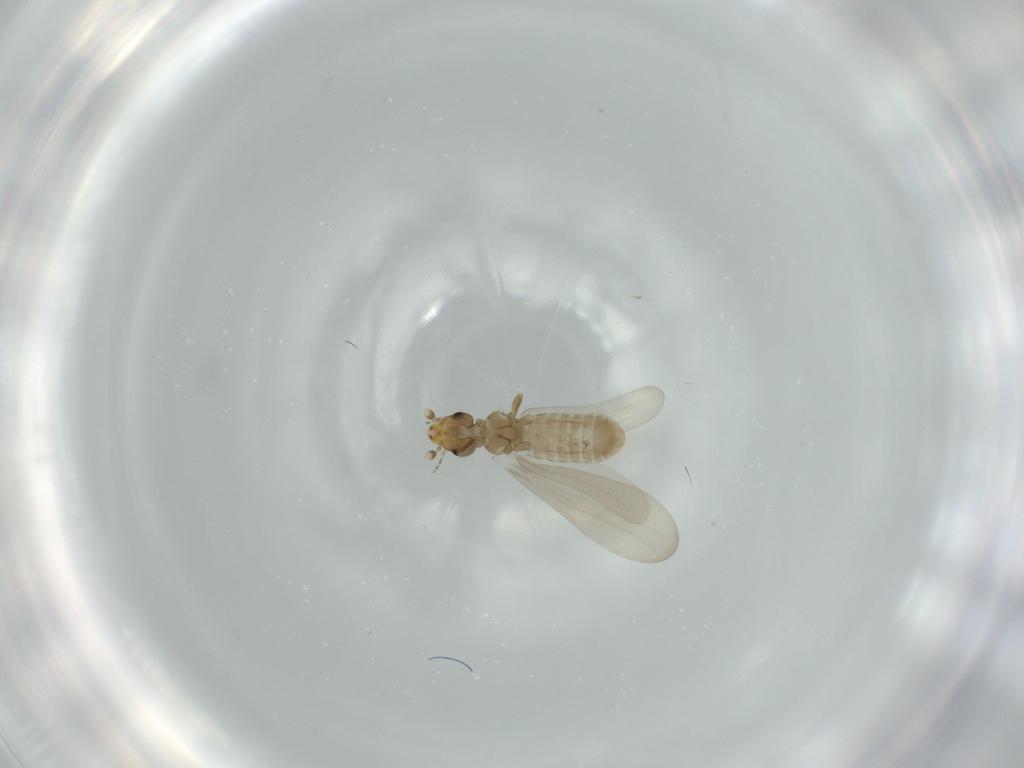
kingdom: Animalia
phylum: Arthropoda
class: Insecta
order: Psocodea
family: Liposcelididae
